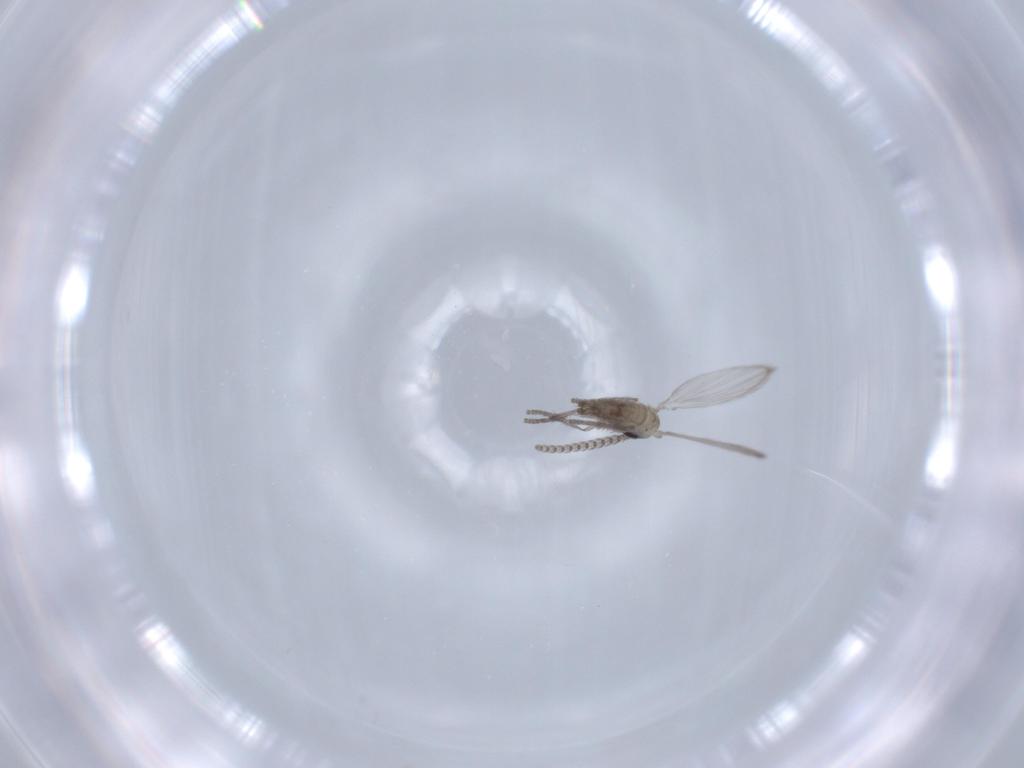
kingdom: Animalia
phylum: Arthropoda
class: Insecta
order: Diptera
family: Psychodidae
